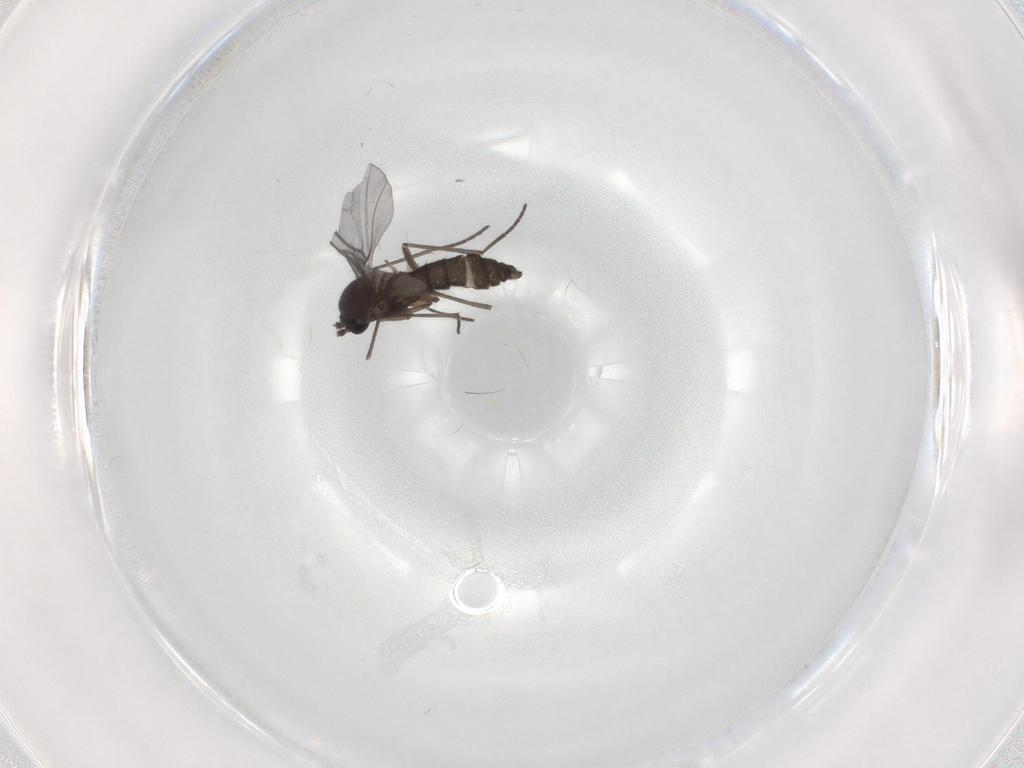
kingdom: Animalia
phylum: Arthropoda
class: Insecta
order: Diptera
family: Sciaridae
